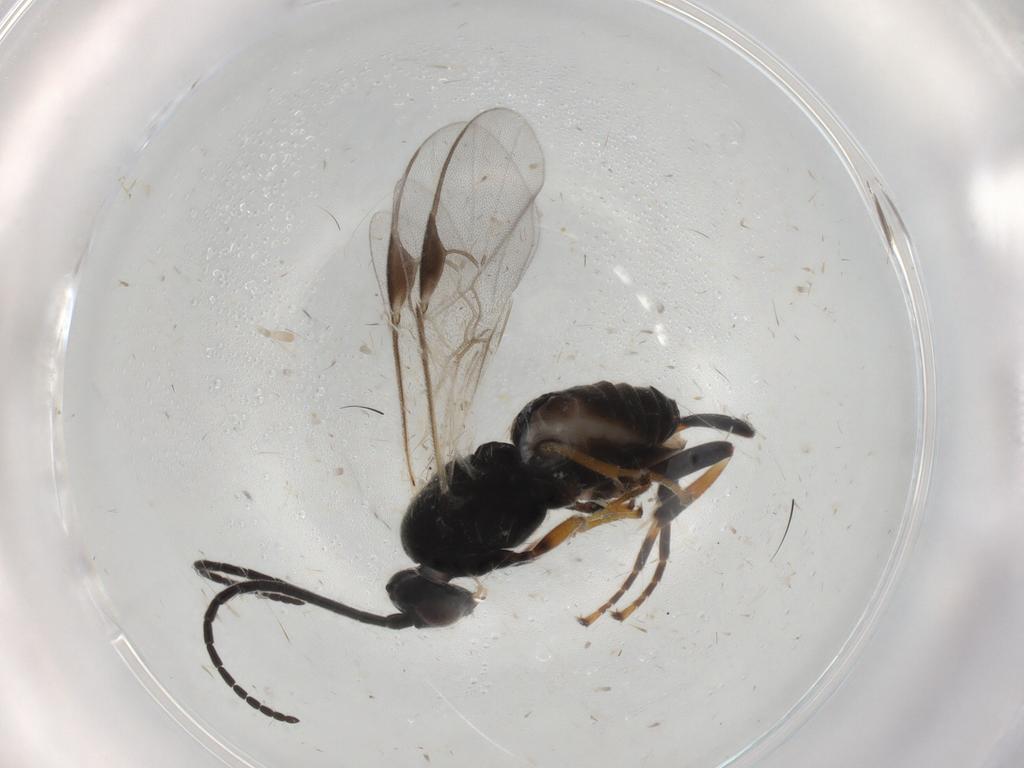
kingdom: Animalia
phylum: Arthropoda
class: Insecta
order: Hymenoptera
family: Braconidae
